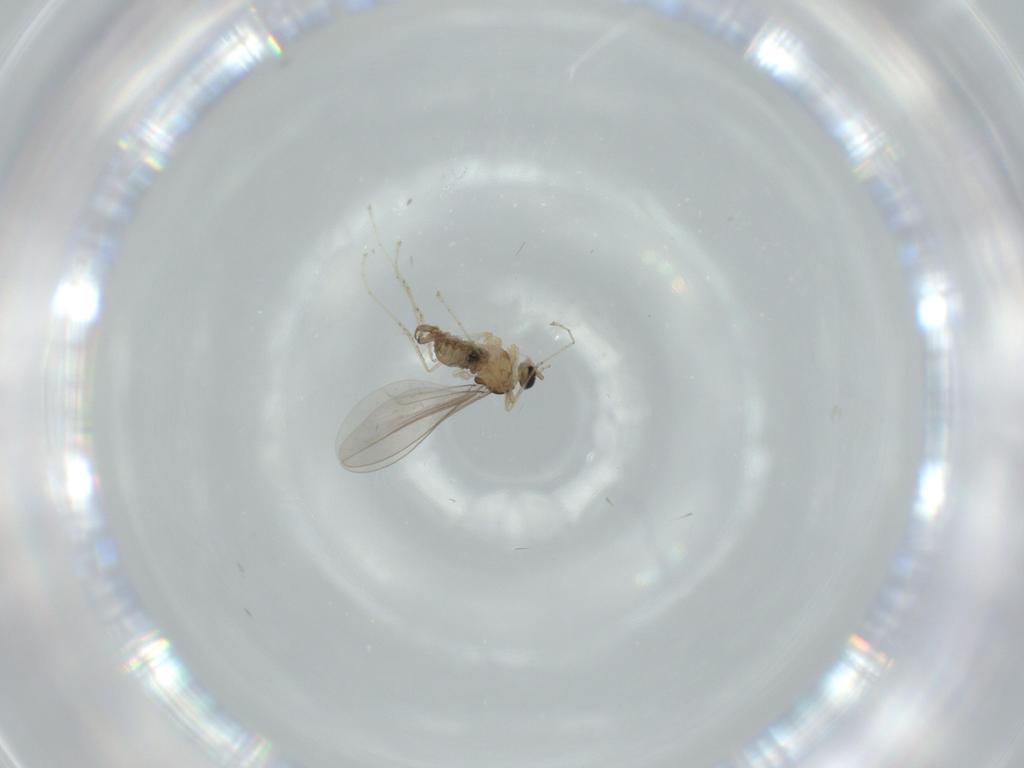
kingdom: Animalia
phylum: Arthropoda
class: Insecta
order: Diptera
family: Cecidomyiidae
